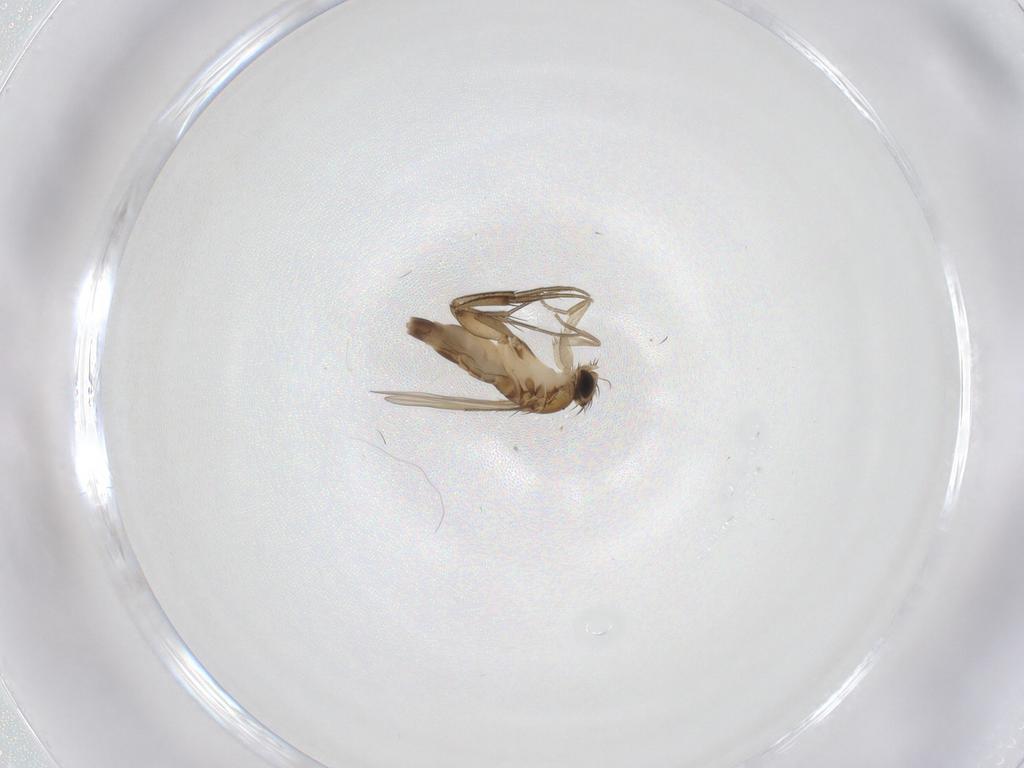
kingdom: Animalia
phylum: Arthropoda
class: Insecta
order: Diptera
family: Phoridae
